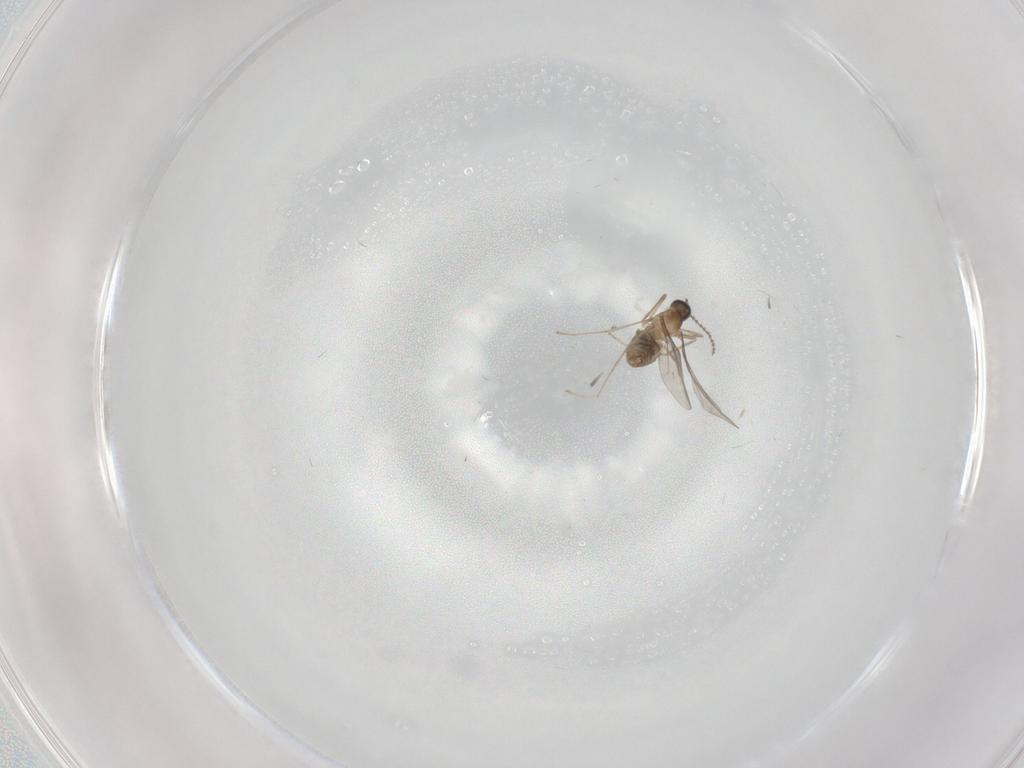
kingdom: Animalia
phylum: Arthropoda
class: Insecta
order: Diptera
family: Cecidomyiidae
